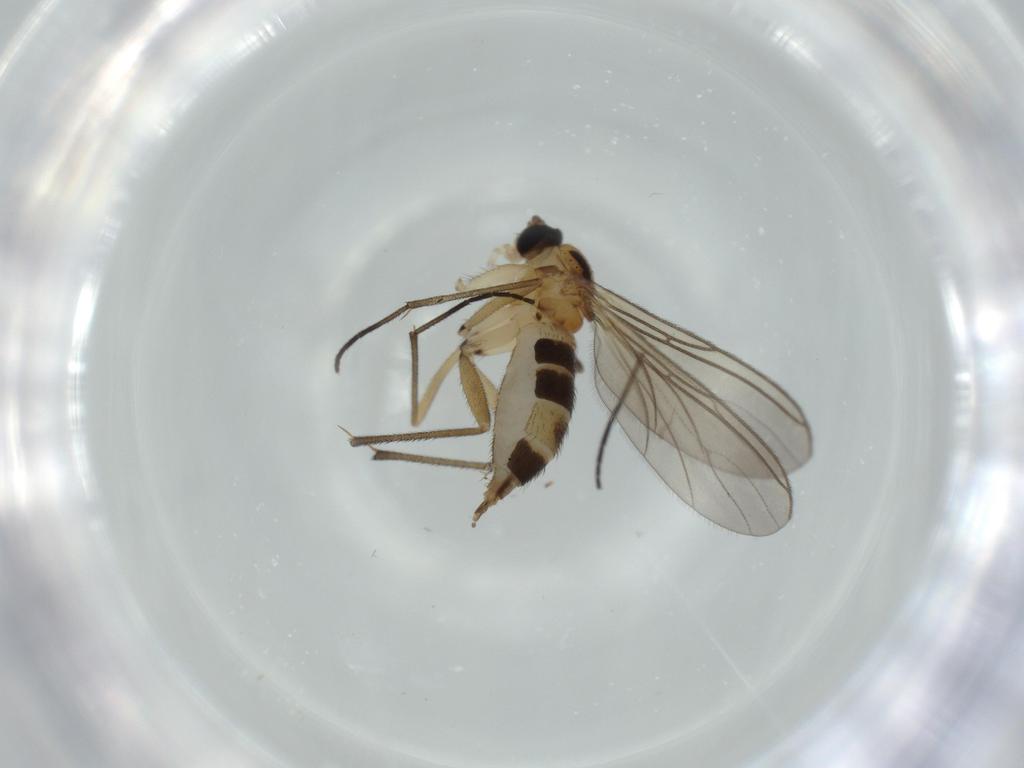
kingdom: Animalia
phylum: Arthropoda
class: Insecta
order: Diptera
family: Sciaridae
